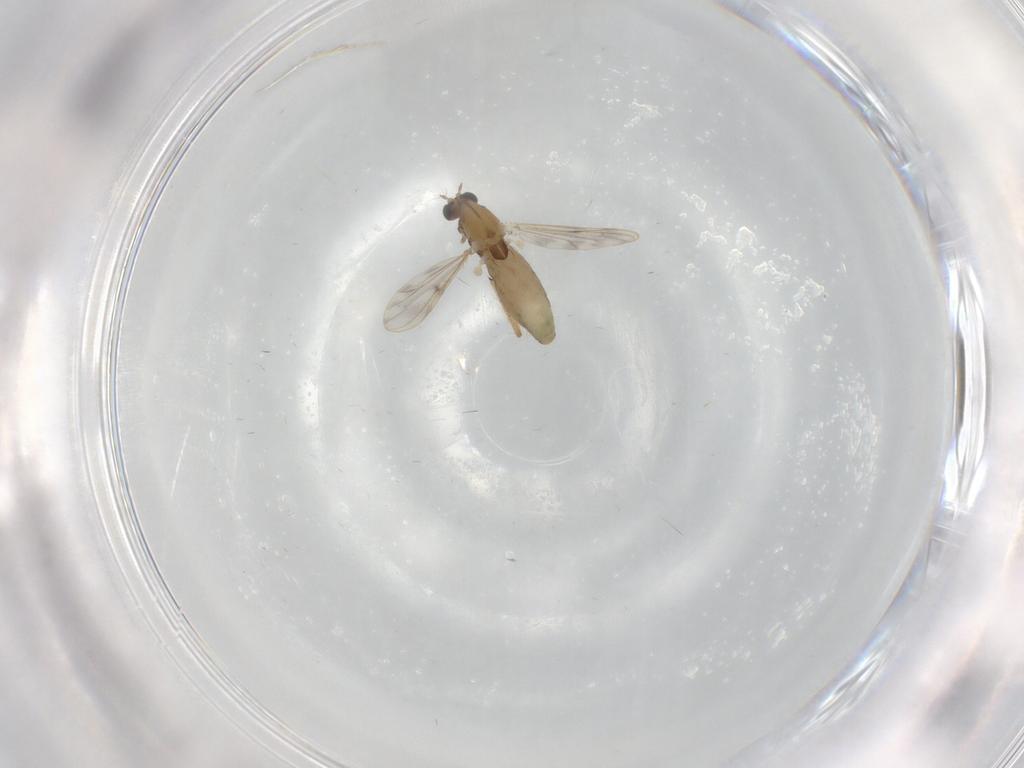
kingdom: Animalia
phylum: Arthropoda
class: Insecta
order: Diptera
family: Chironomidae
